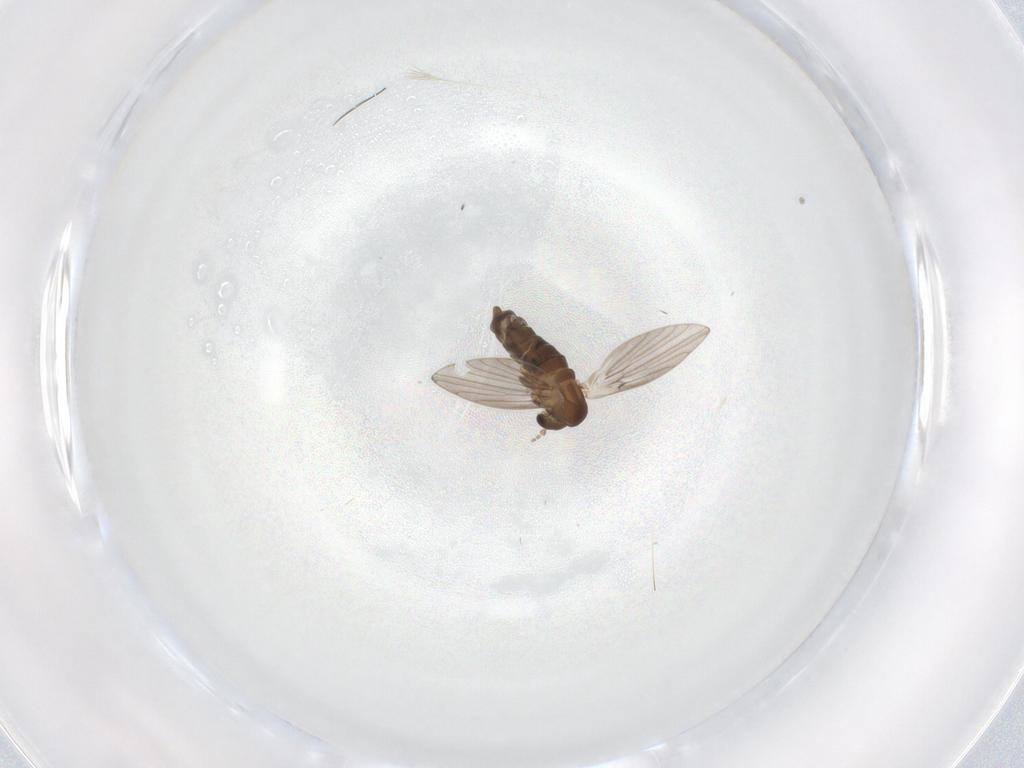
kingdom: Animalia
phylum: Arthropoda
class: Insecta
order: Diptera
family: Psychodidae
